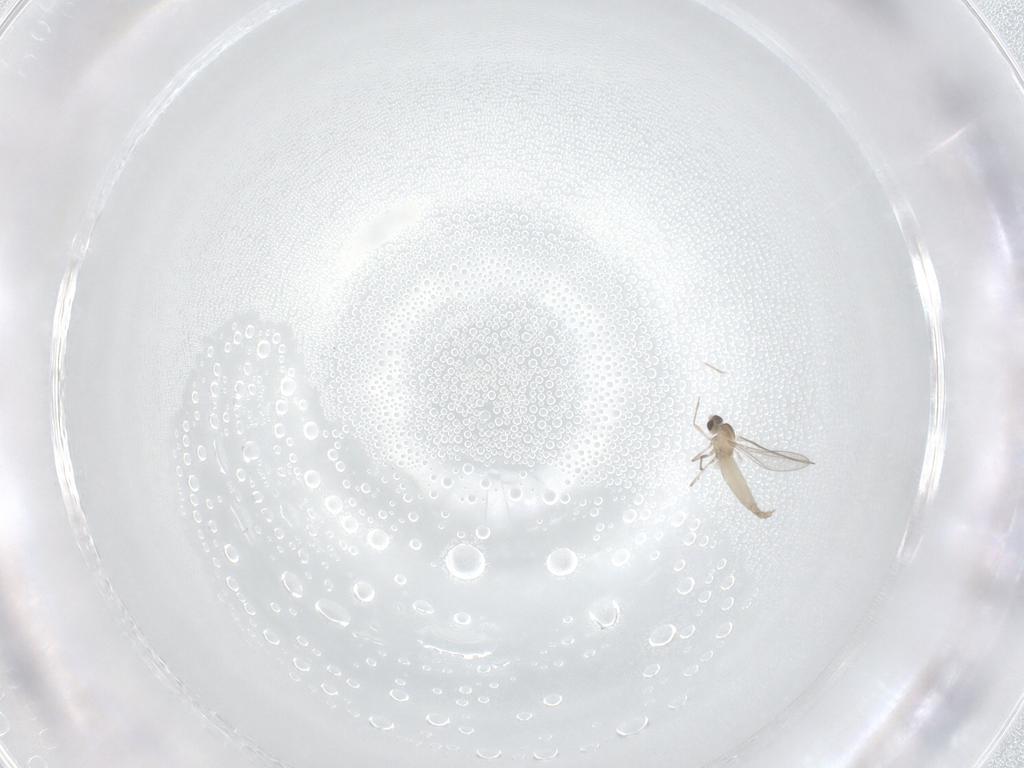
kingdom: Animalia
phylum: Arthropoda
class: Insecta
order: Diptera
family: Cecidomyiidae
